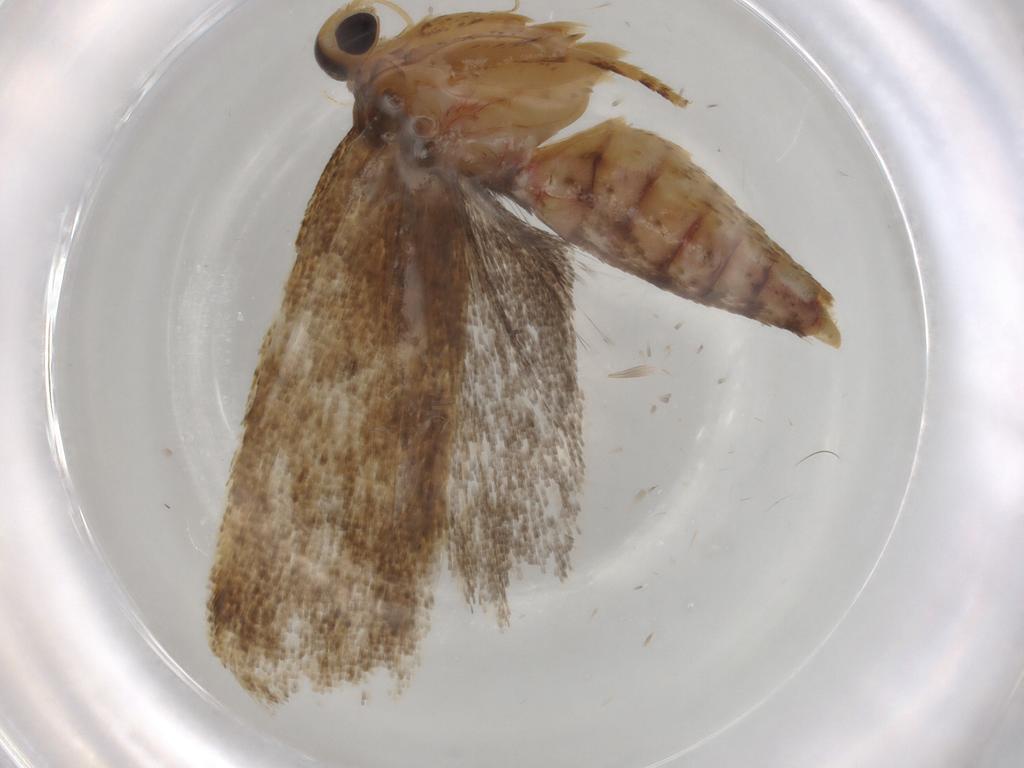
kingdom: Animalia
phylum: Arthropoda
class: Insecta
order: Lepidoptera
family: Autostichidae
